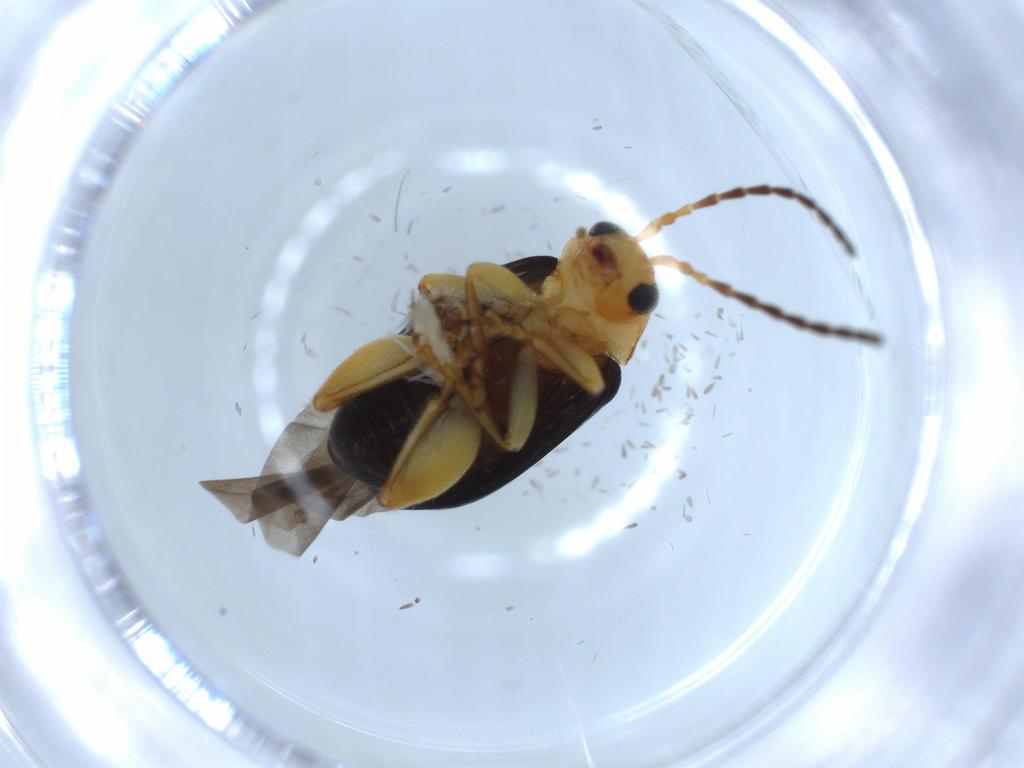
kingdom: Animalia
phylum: Arthropoda
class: Insecta
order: Coleoptera
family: Chrysomelidae
